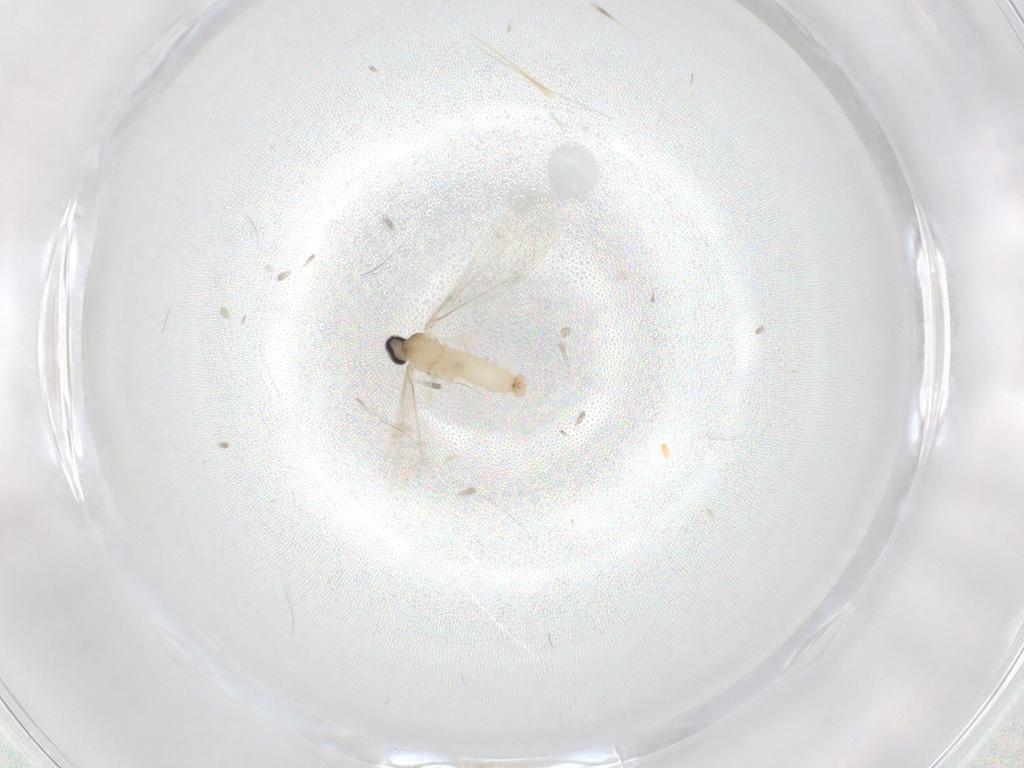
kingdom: Animalia
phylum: Arthropoda
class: Insecta
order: Diptera
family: Cecidomyiidae
